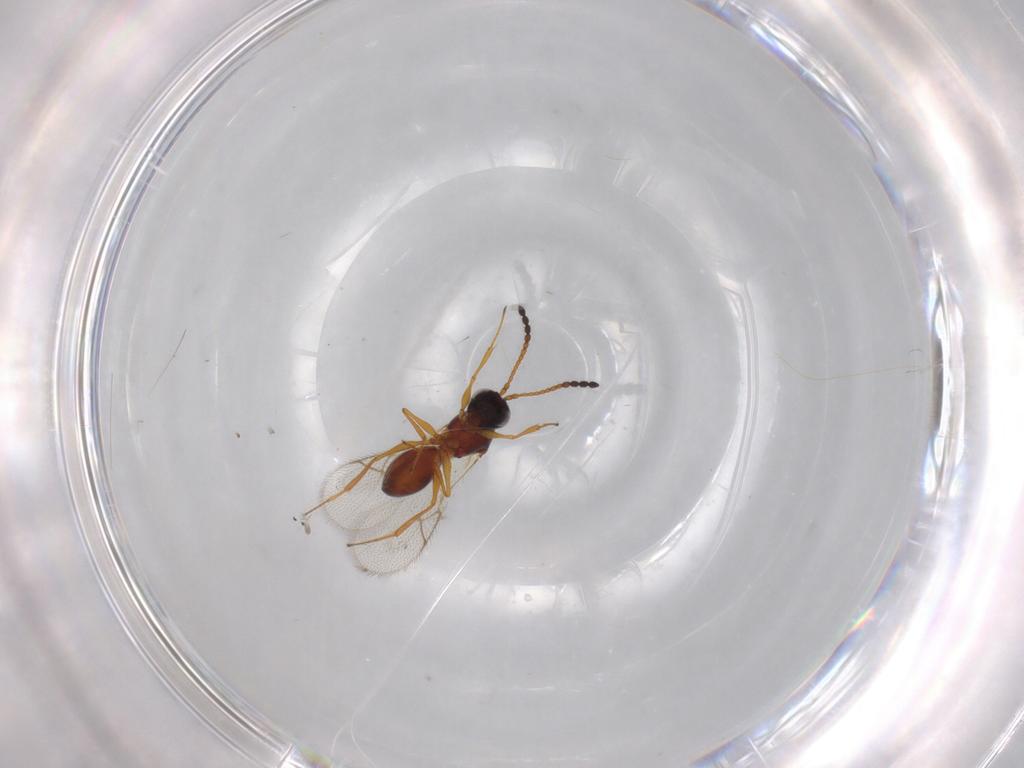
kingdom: Animalia
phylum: Arthropoda
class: Insecta
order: Hymenoptera
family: Figitidae
